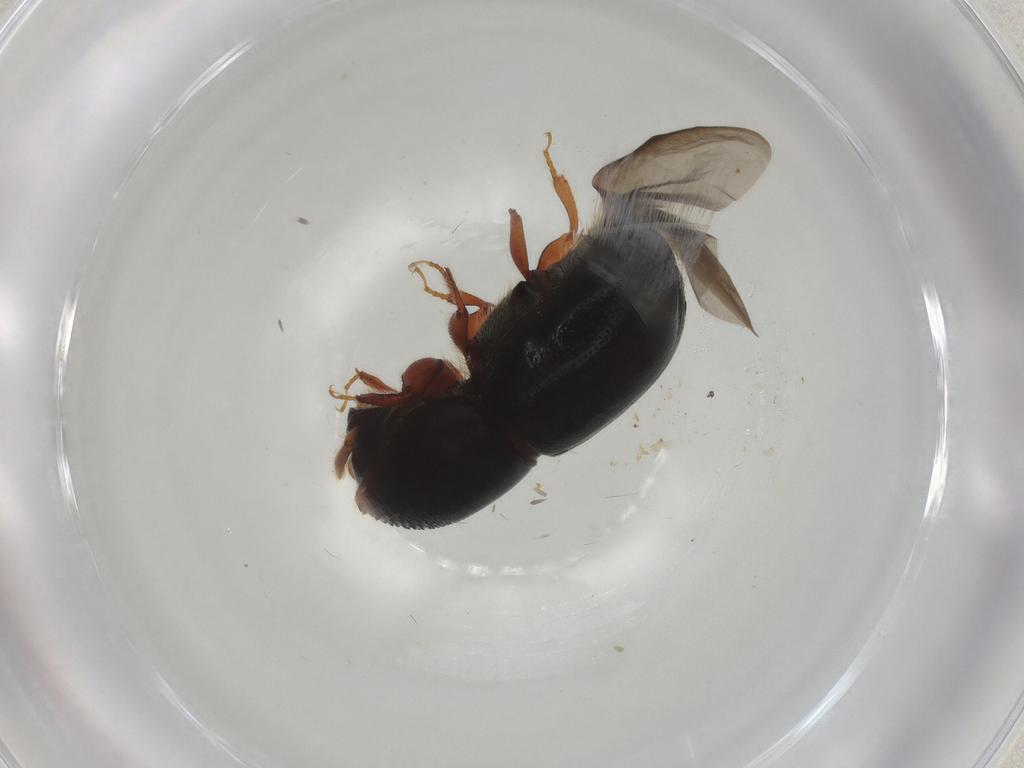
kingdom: Animalia
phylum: Arthropoda
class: Insecta
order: Coleoptera
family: Curculionidae
